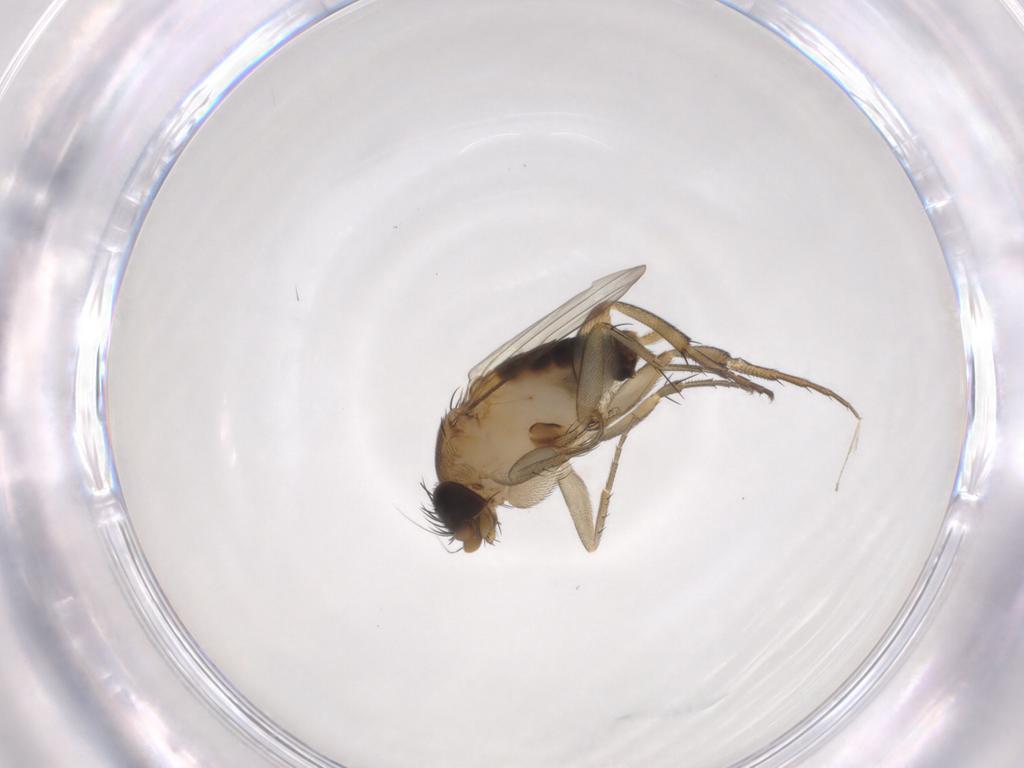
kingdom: Animalia
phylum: Arthropoda
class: Insecta
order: Diptera
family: Phoridae
